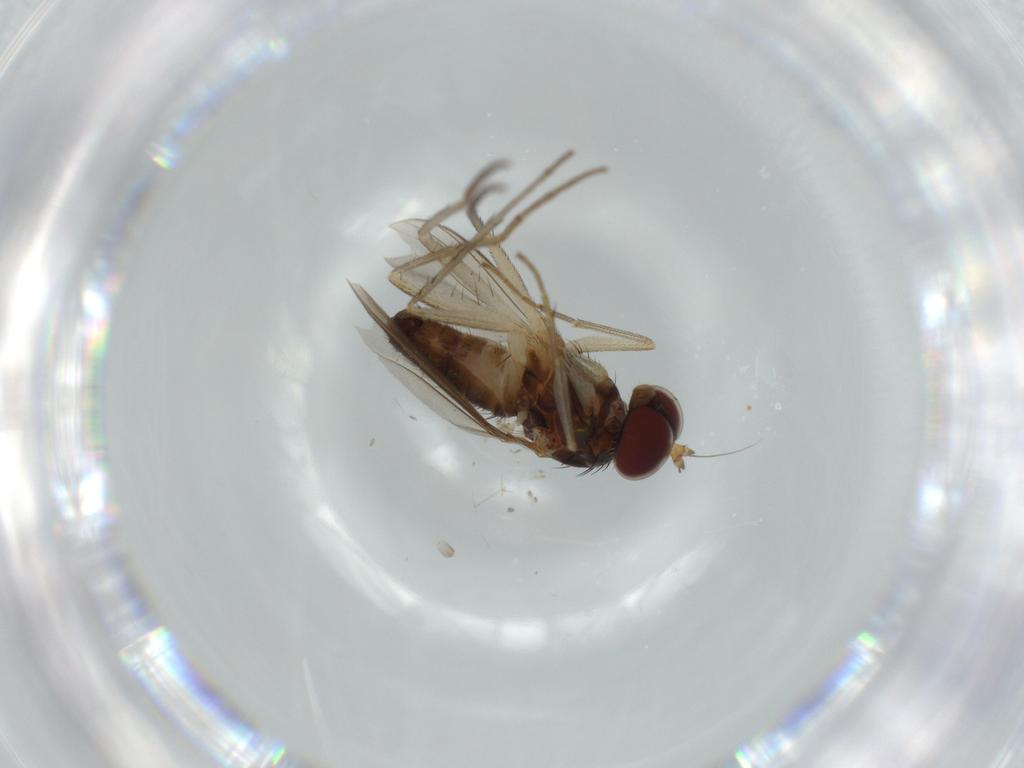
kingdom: Animalia
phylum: Arthropoda
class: Insecta
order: Diptera
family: Dolichopodidae
